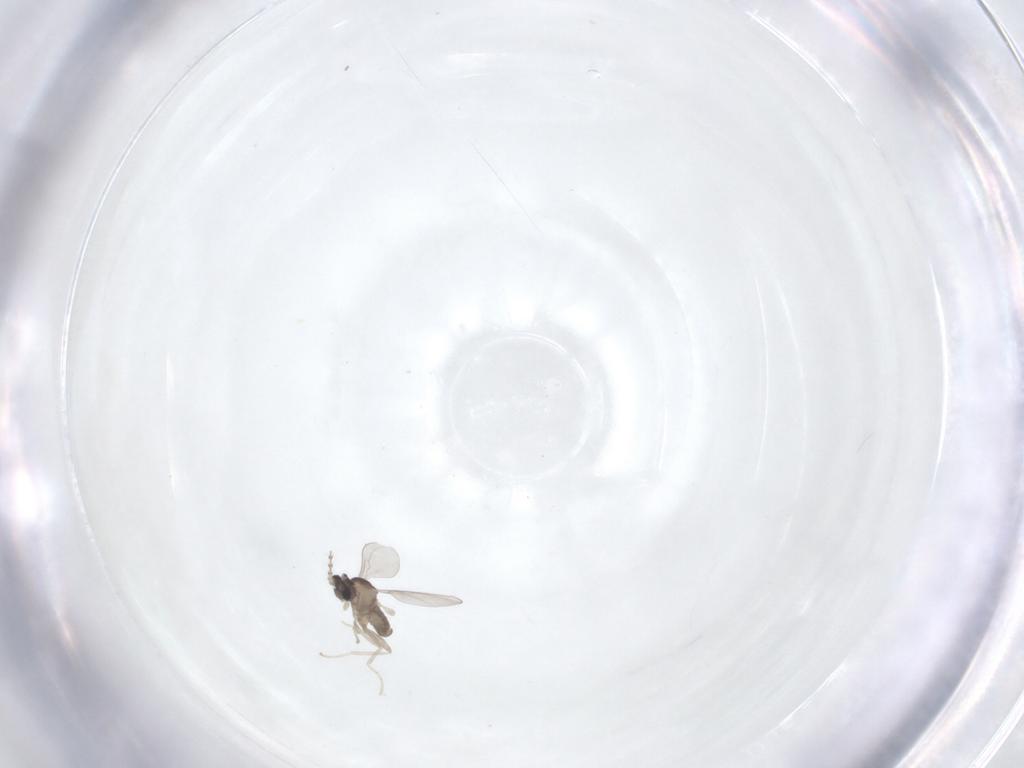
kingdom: Animalia
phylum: Arthropoda
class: Insecta
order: Diptera
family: Cecidomyiidae
